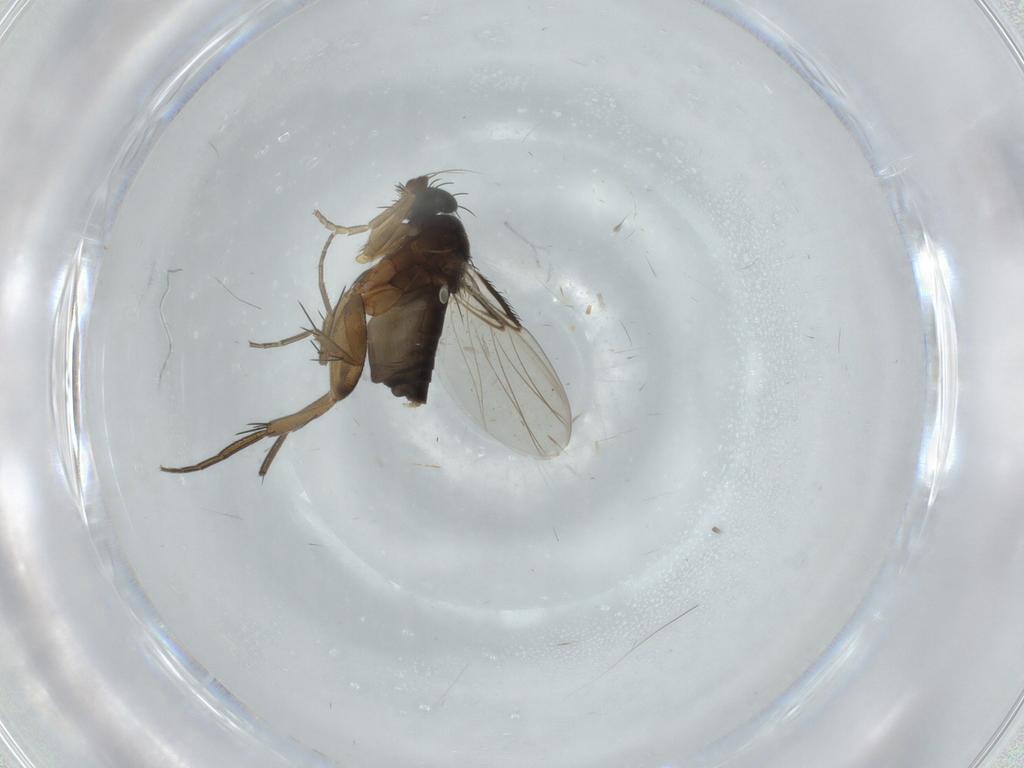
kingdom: Animalia
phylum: Arthropoda
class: Insecta
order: Diptera
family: Phoridae
